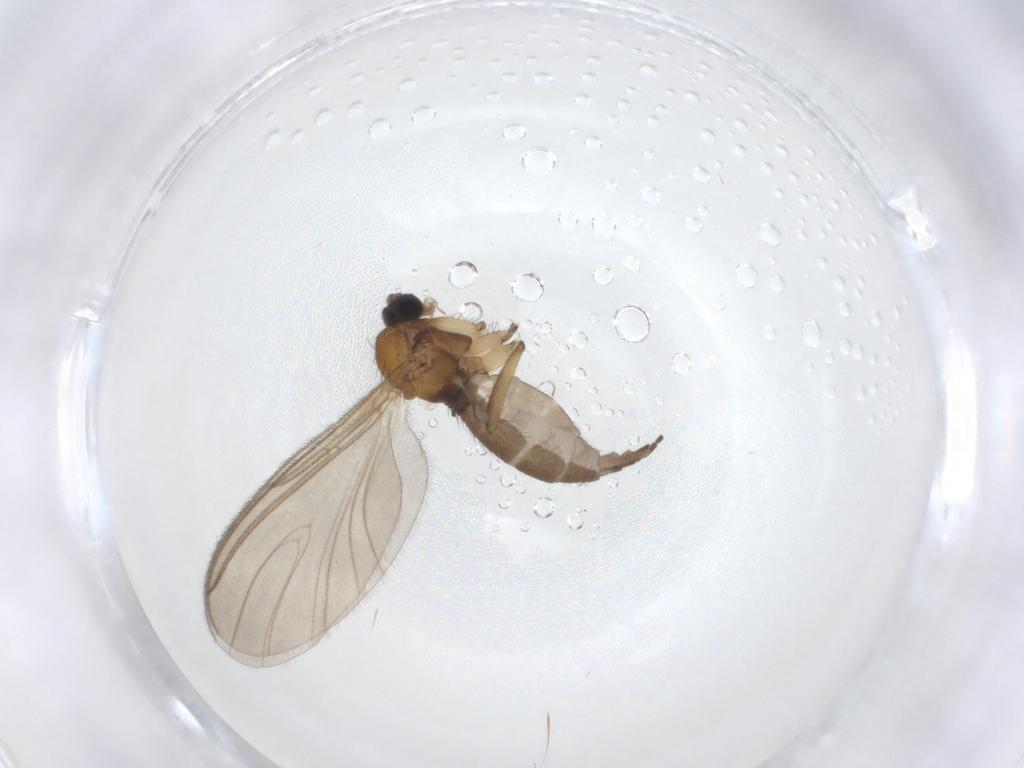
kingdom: Animalia
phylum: Arthropoda
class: Insecta
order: Diptera
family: Sciaridae
